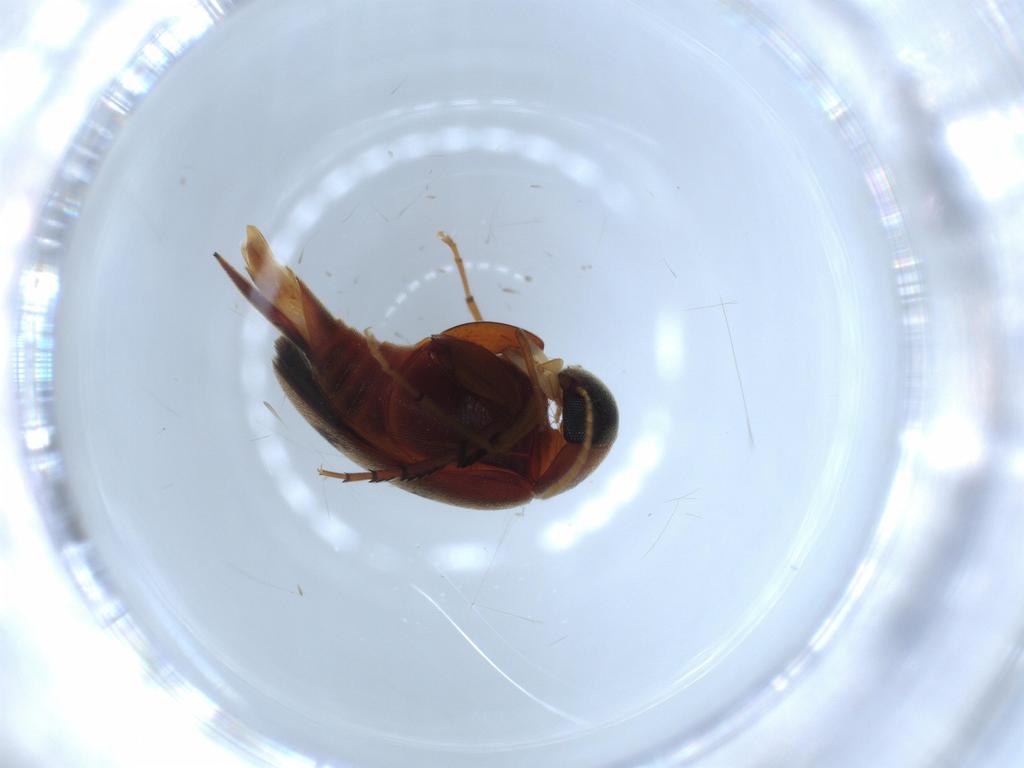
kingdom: Animalia
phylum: Arthropoda
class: Insecta
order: Coleoptera
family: Mordellidae
